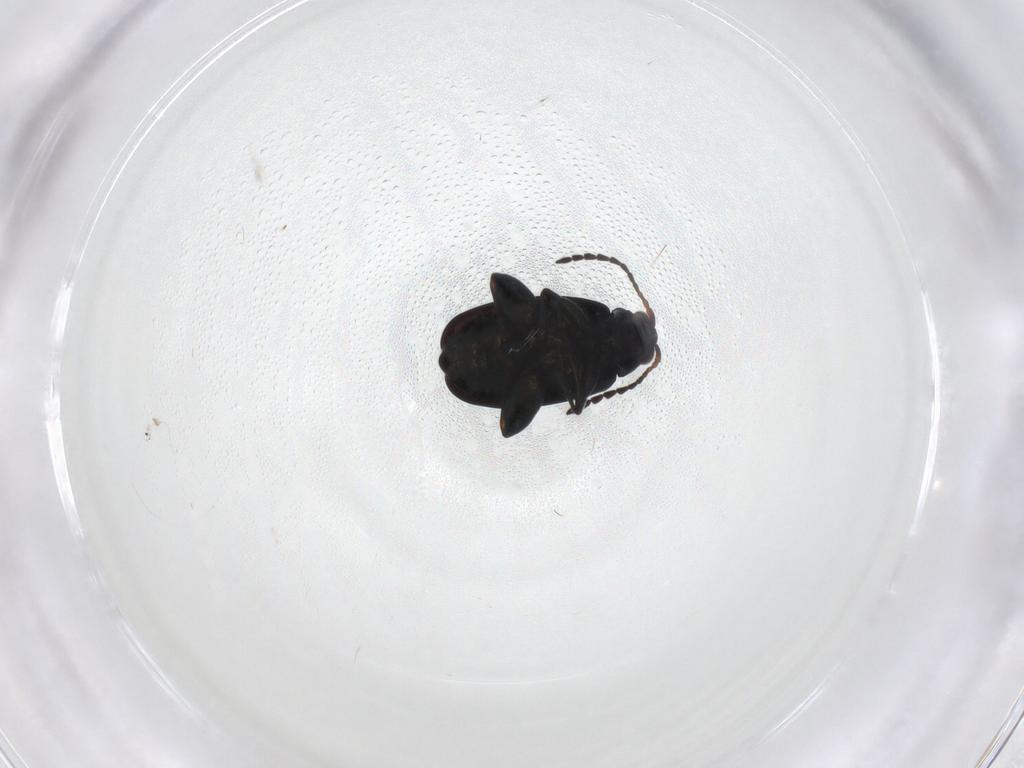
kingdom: Animalia
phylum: Arthropoda
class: Insecta
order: Coleoptera
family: Chrysomelidae
